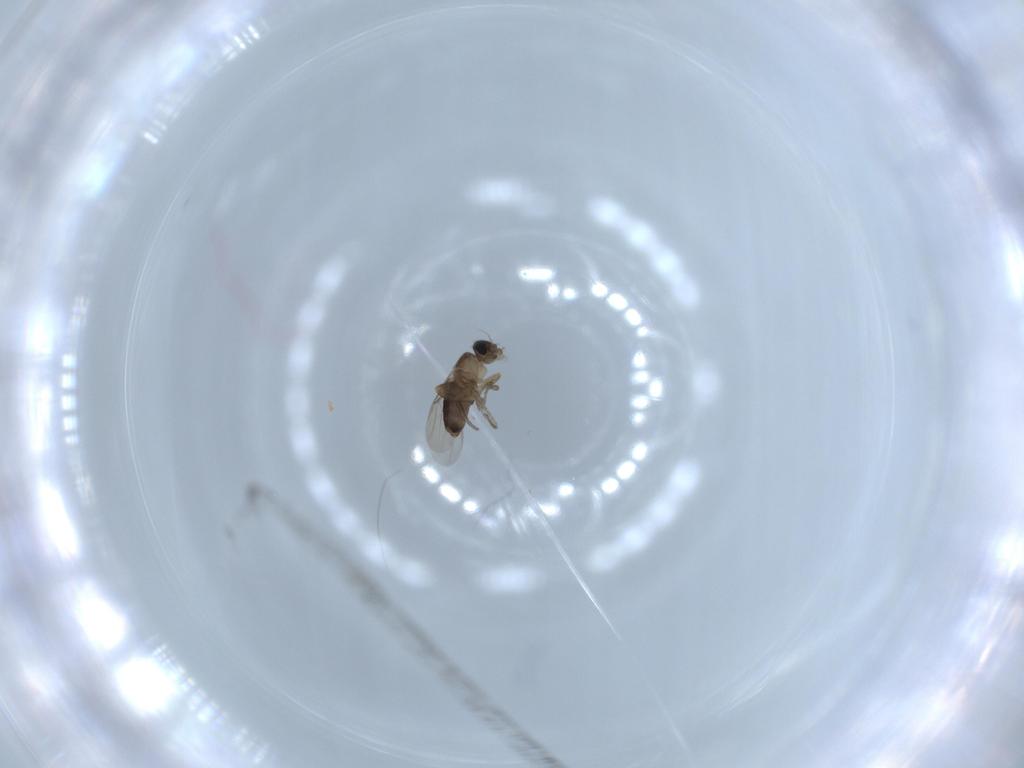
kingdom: Animalia
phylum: Arthropoda
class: Insecta
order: Diptera
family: Phoridae
